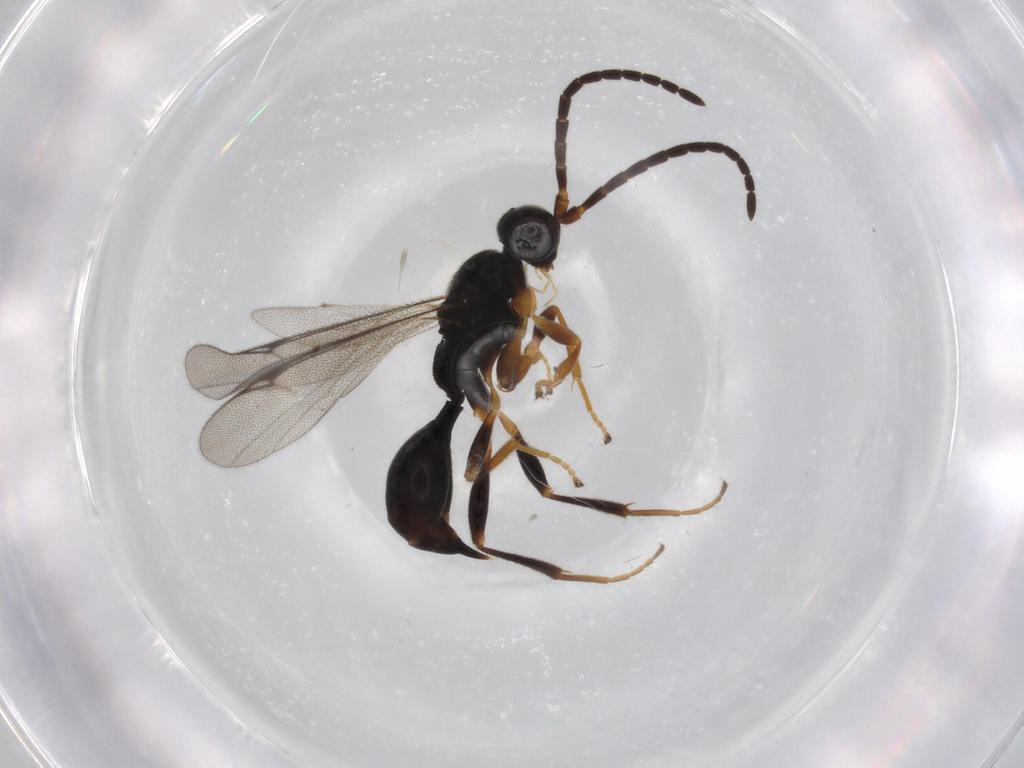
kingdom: Animalia
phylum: Arthropoda
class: Insecta
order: Hymenoptera
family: Proctotrupidae
